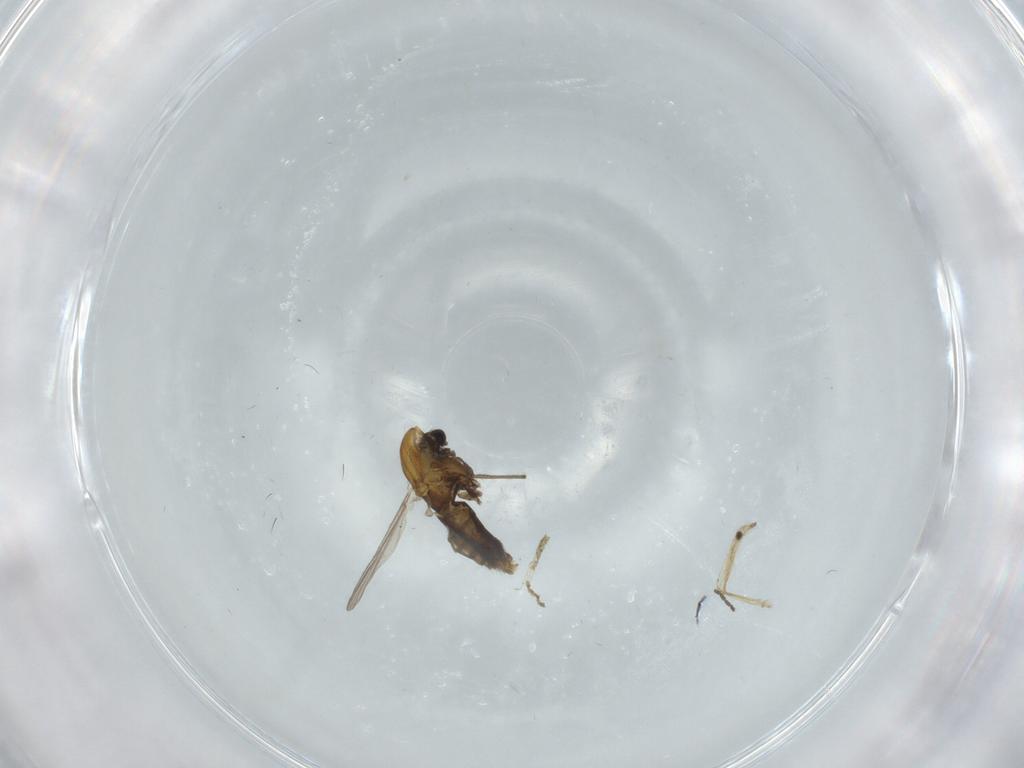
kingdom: Animalia
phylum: Arthropoda
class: Insecta
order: Diptera
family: Chironomidae
